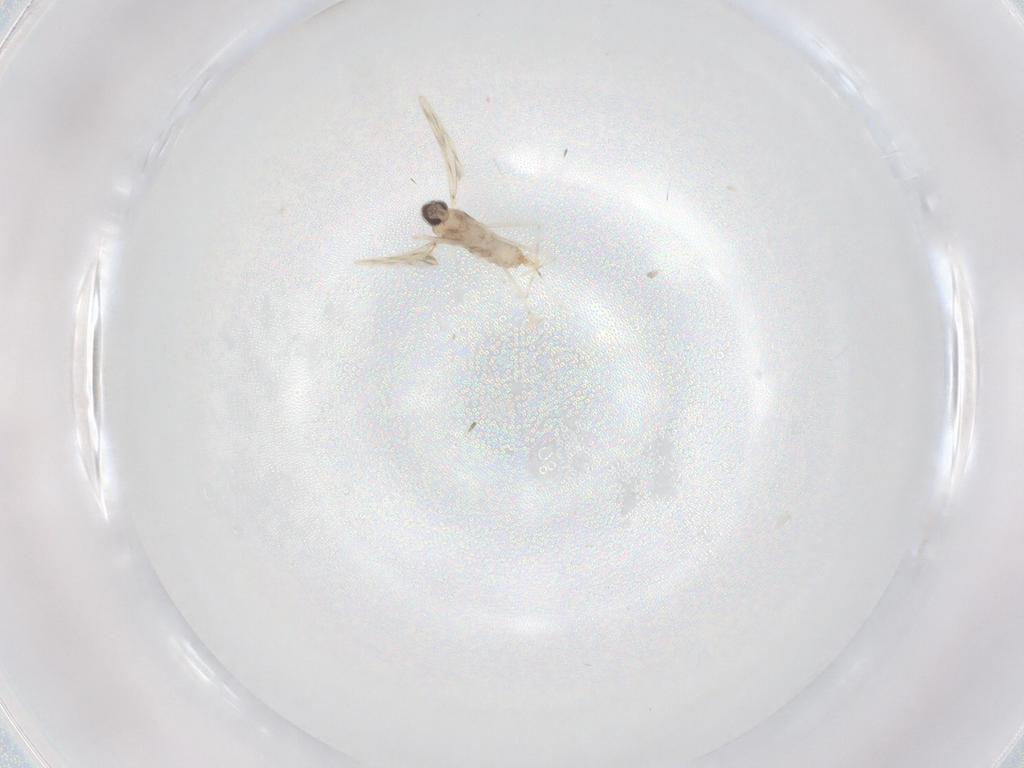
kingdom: Animalia
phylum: Arthropoda
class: Insecta
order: Diptera
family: Cecidomyiidae
